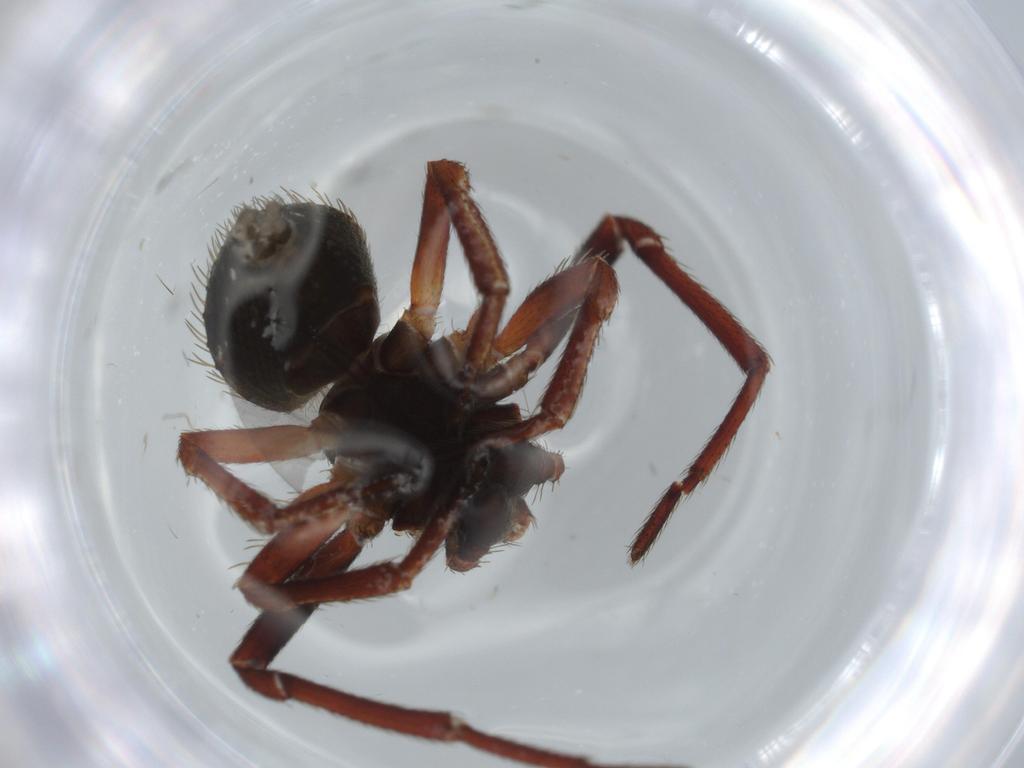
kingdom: Animalia
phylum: Arthropoda
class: Arachnida
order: Araneae
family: Thomisidae
